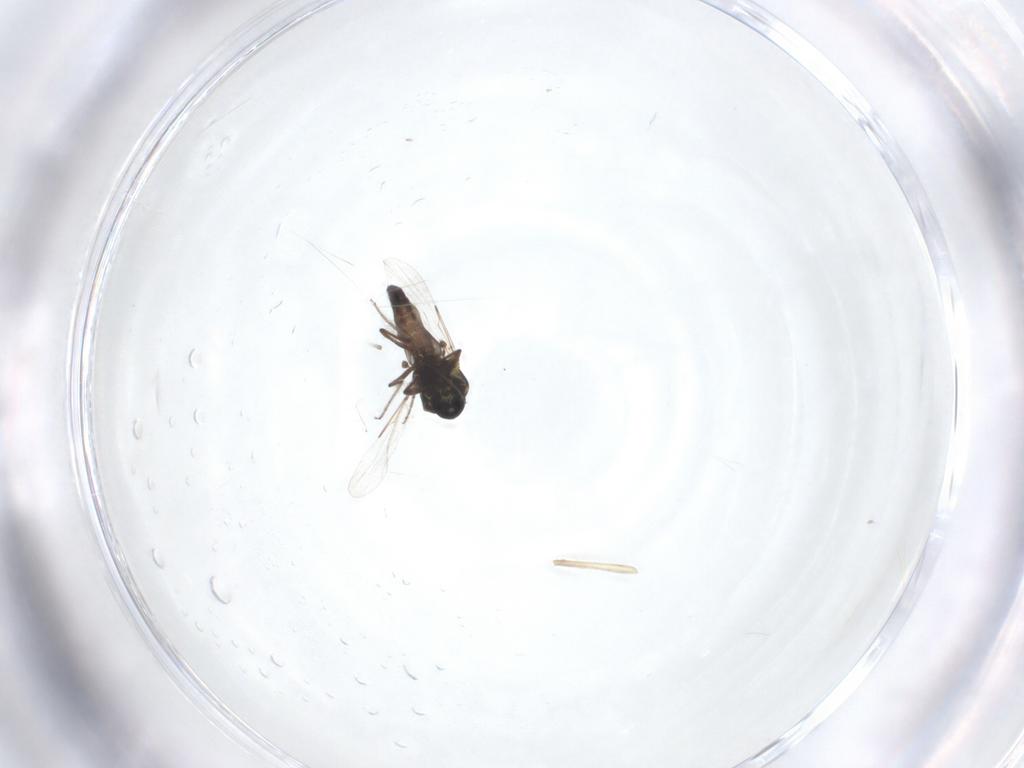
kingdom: Animalia
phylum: Arthropoda
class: Insecta
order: Diptera
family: Ceratopogonidae
